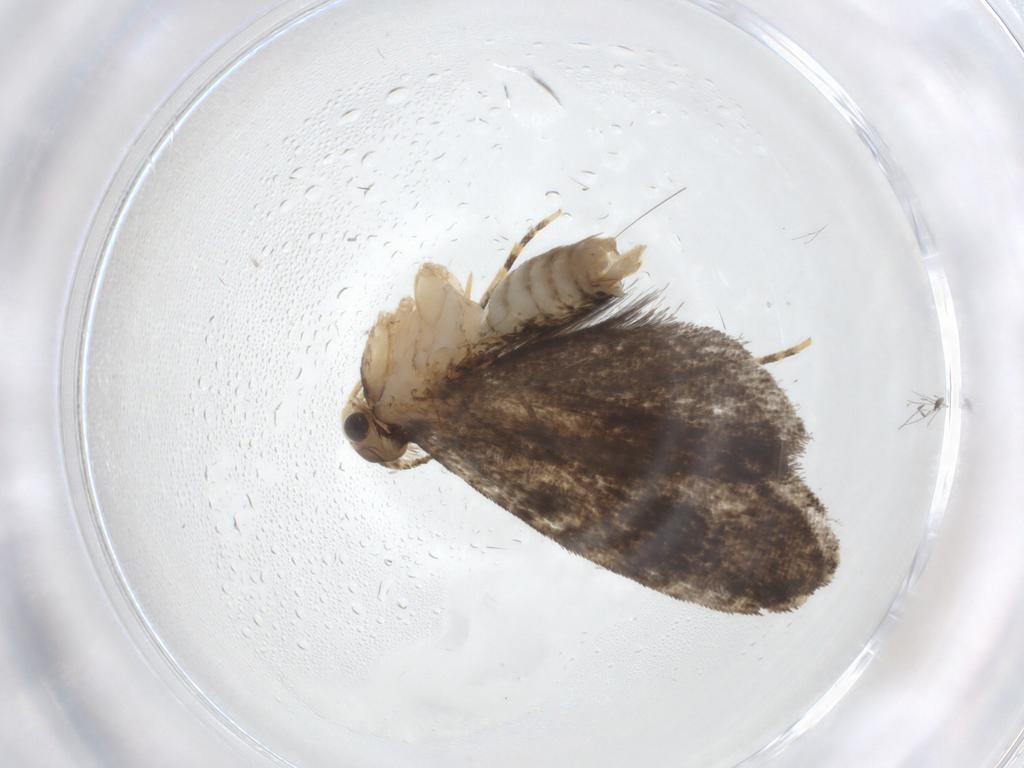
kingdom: Animalia
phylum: Arthropoda
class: Insecta
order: Lepidoptera
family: Tineidae
